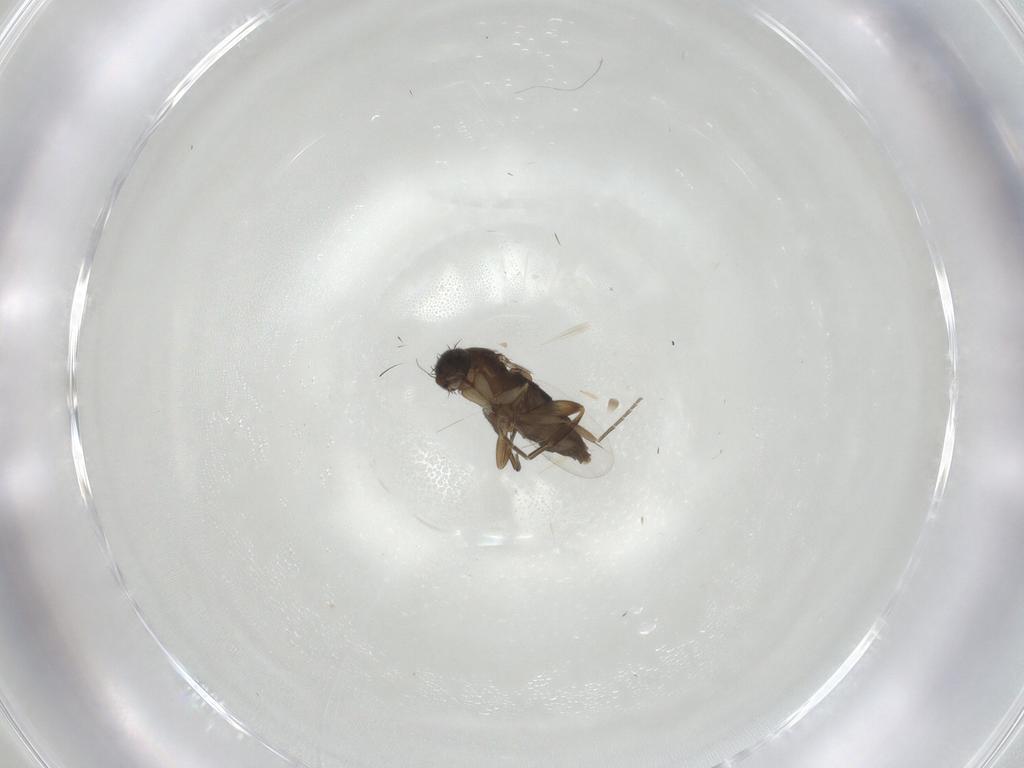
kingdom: Animalia
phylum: Arthropoda
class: Insecta
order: Diptera
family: Phoridae
